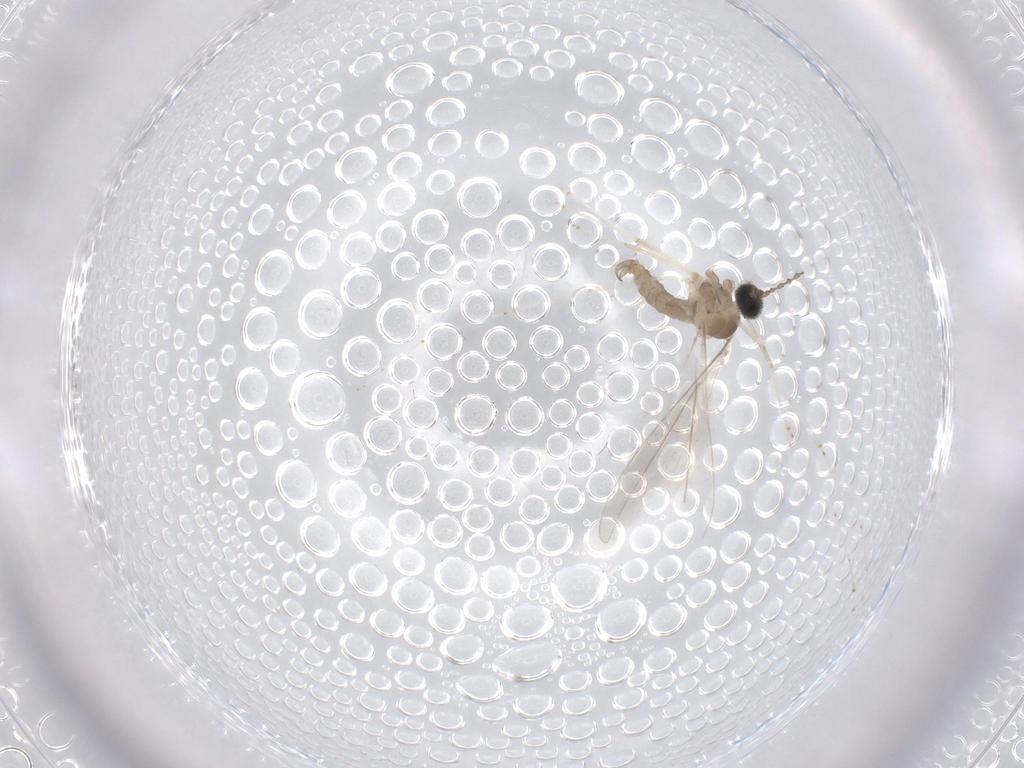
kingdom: Animalia
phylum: Arthropoda
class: Insecta
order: Diptera
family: Cecidomyiidae
